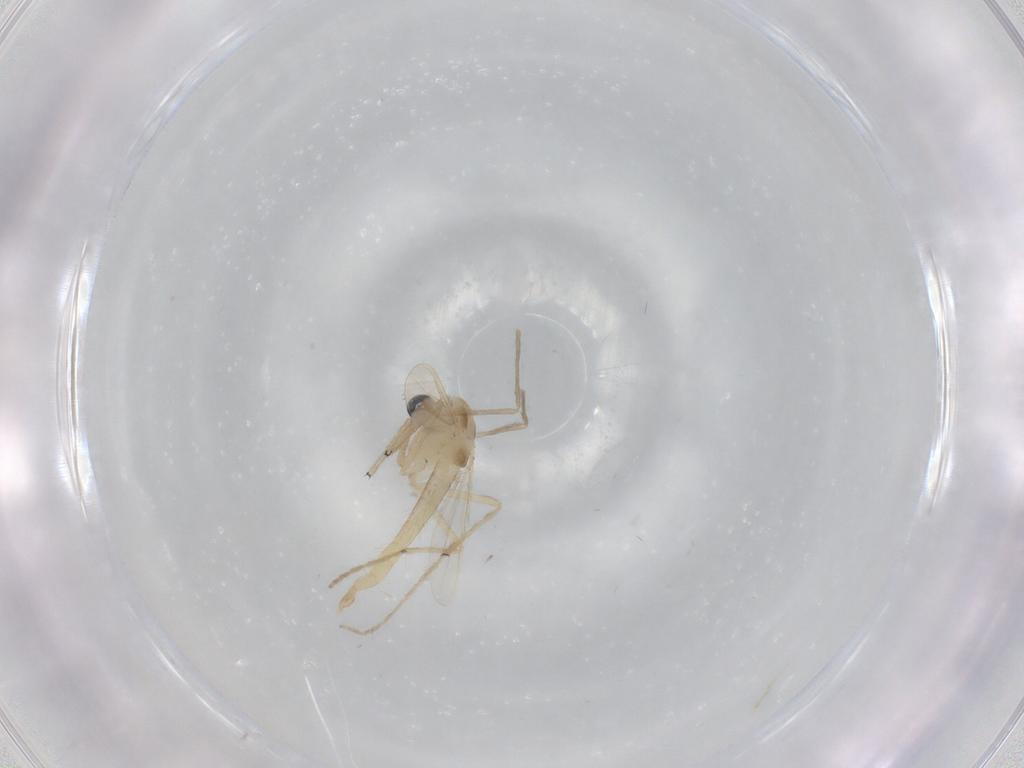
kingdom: Animalia
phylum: Arthropoda
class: Insecta
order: Diptera
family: Chironomidae
